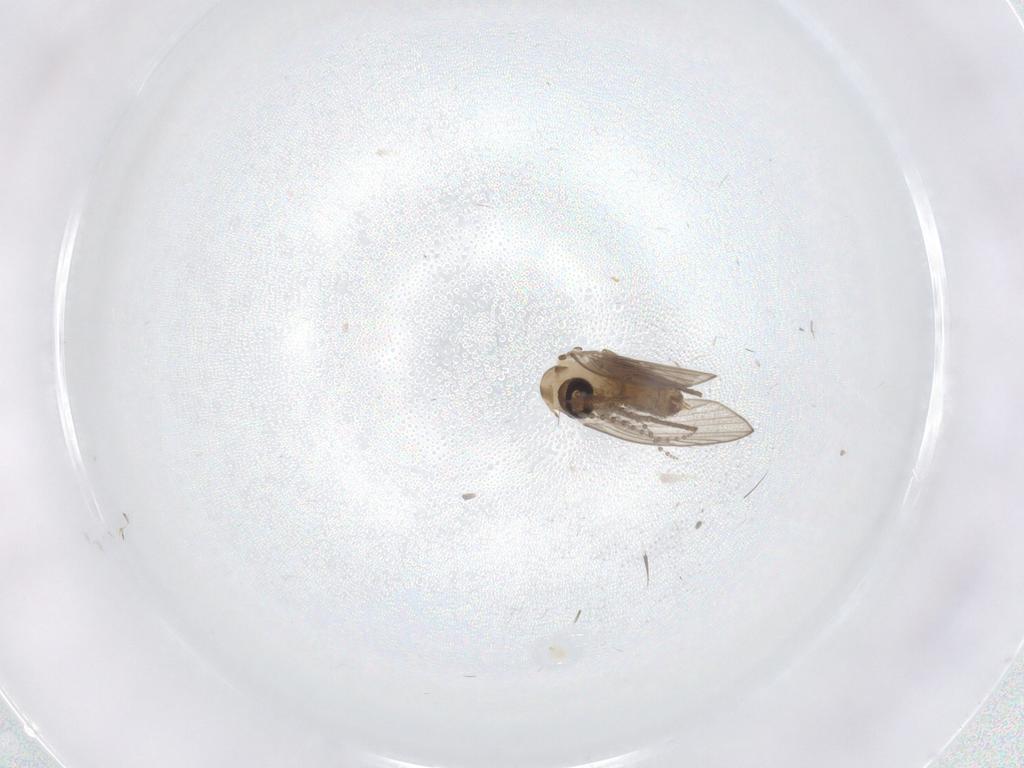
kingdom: Animalia
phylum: Arthropoda
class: Insecta
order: Diptera
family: Psychodidae
